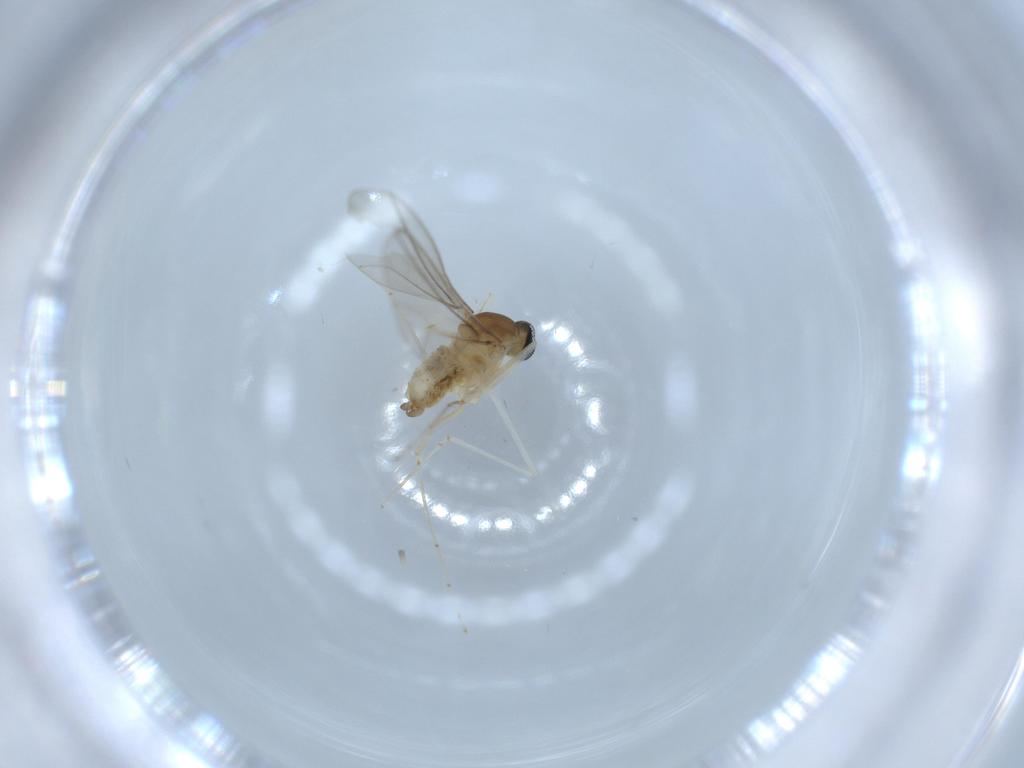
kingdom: Animalia
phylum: Arthropoda
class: Insecta
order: Diptera
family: Cecidomyiidae
